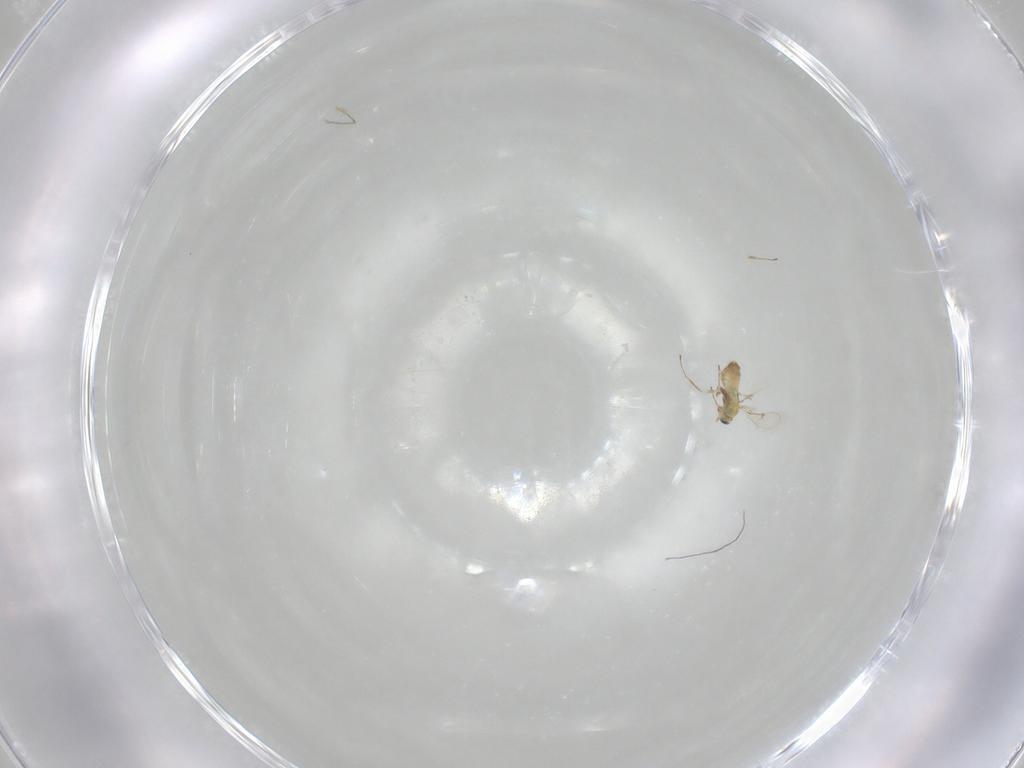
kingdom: Animalia
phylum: Arthropoda
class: Insecta
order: Hymenoptera
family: Trichogrammatidae
